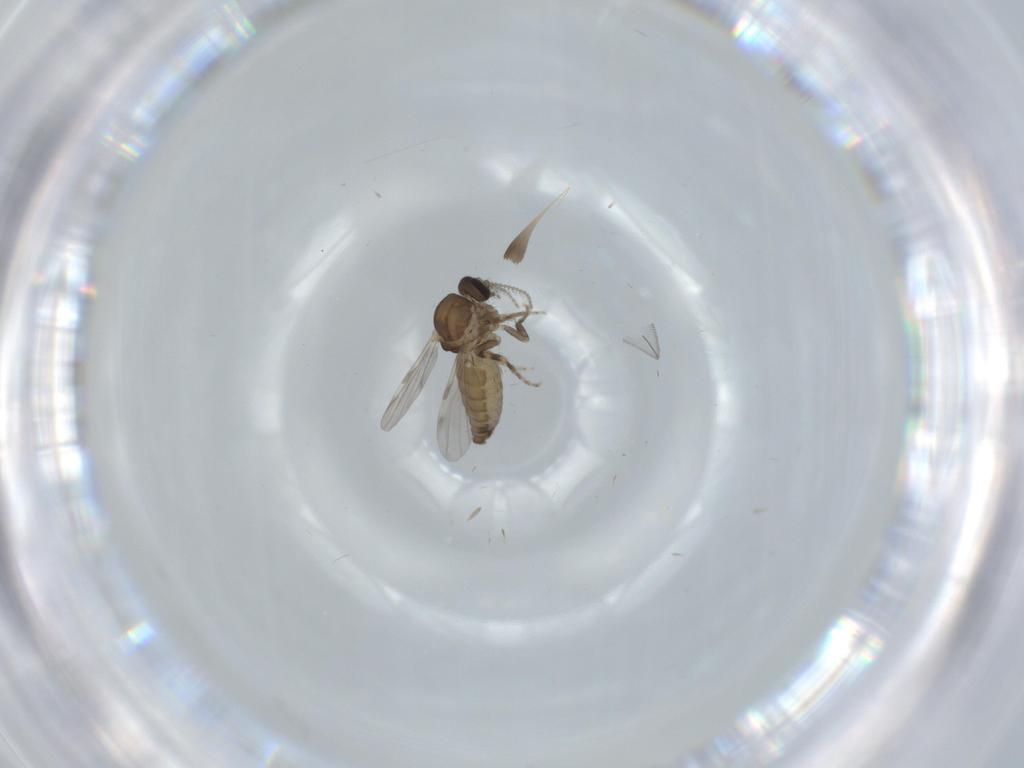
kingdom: Animalia
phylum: Arthropoda
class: Insecta
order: Diptera
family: Ceratopogonidae
